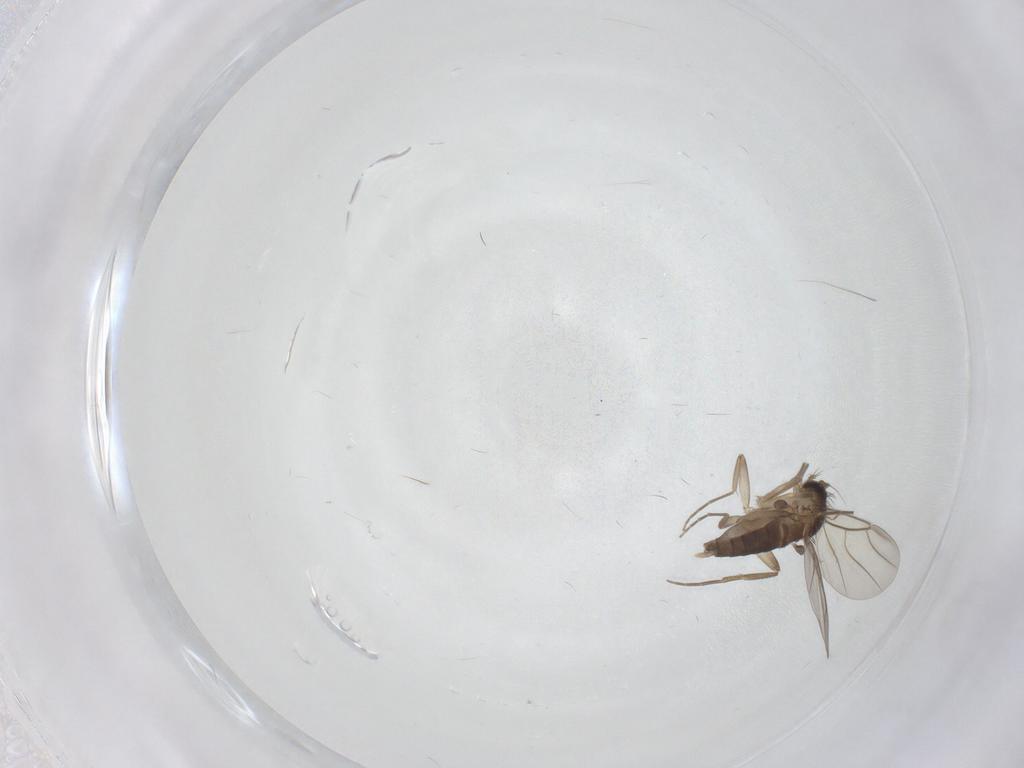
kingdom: Animalia
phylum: Arthropoda
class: Insecta
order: Diptera
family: Phoridae
